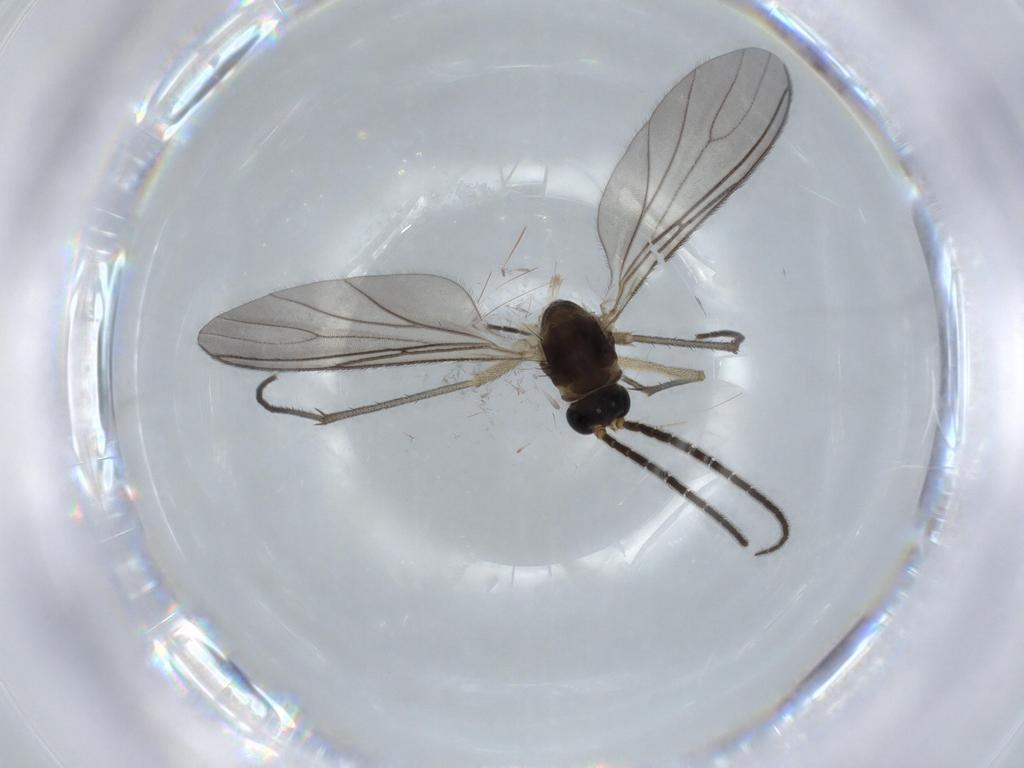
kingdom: Animalia
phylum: Arthropoda
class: Insecta
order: Diptera
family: Sciaridae
